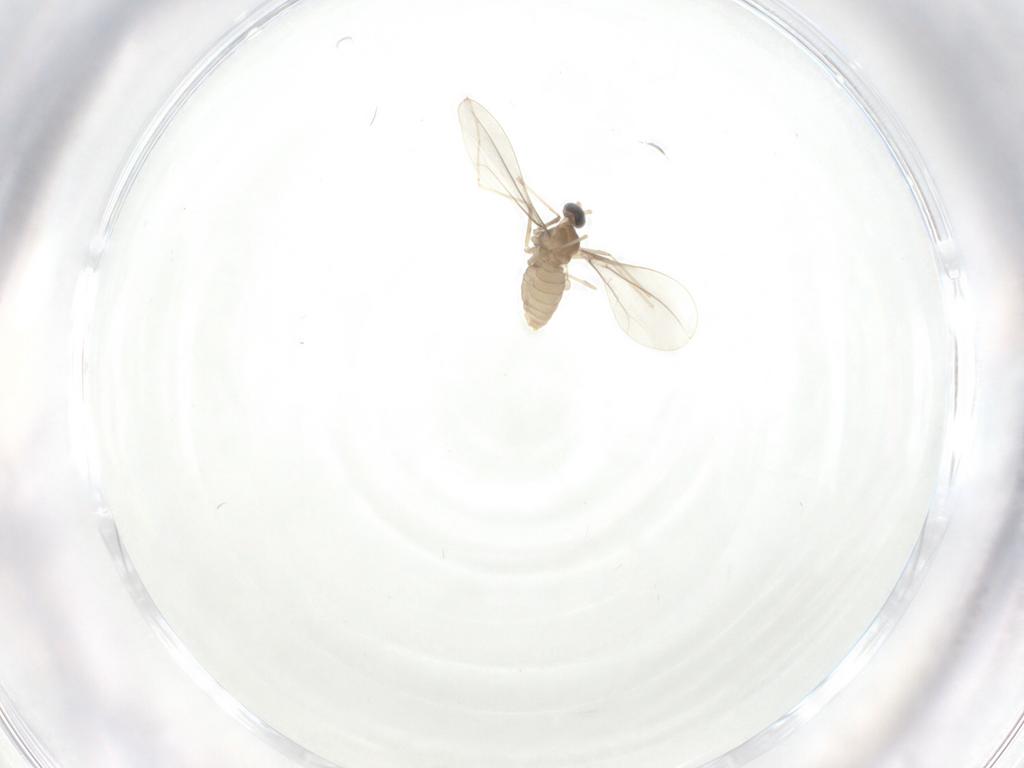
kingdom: Animalia
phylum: Arthropoda
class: Insecta
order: Diptera
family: Cecidomyiidae
